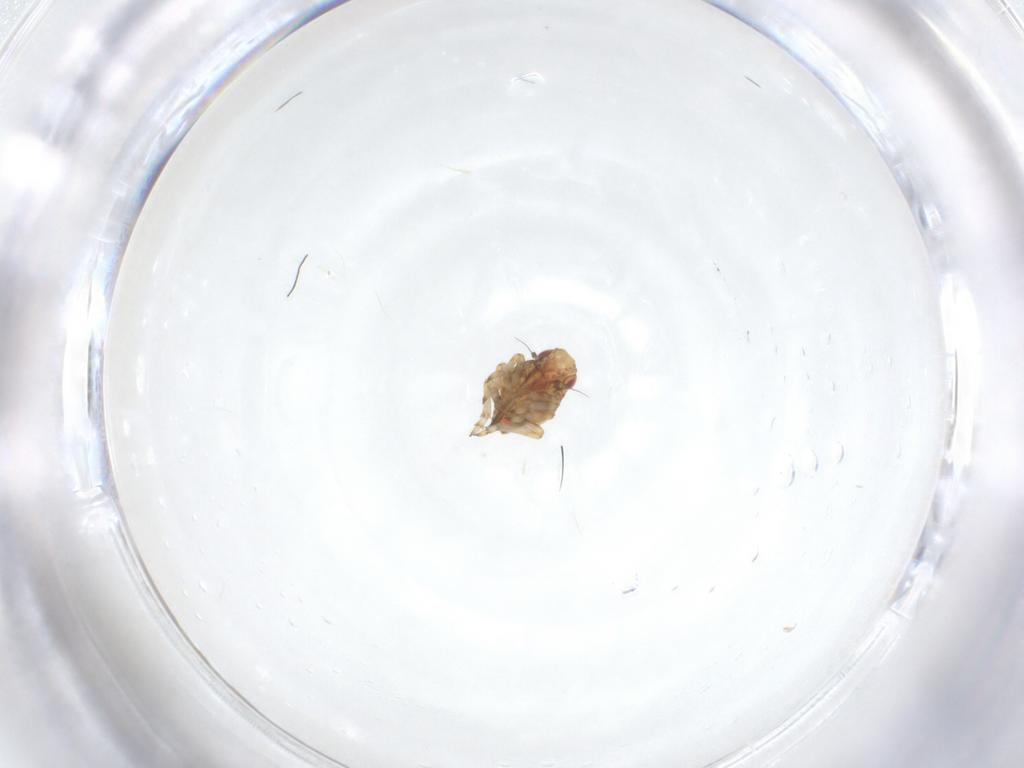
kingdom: Animalia
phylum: Arthropoda
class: Insecta
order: Hemiptera
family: Tropiduchidae
